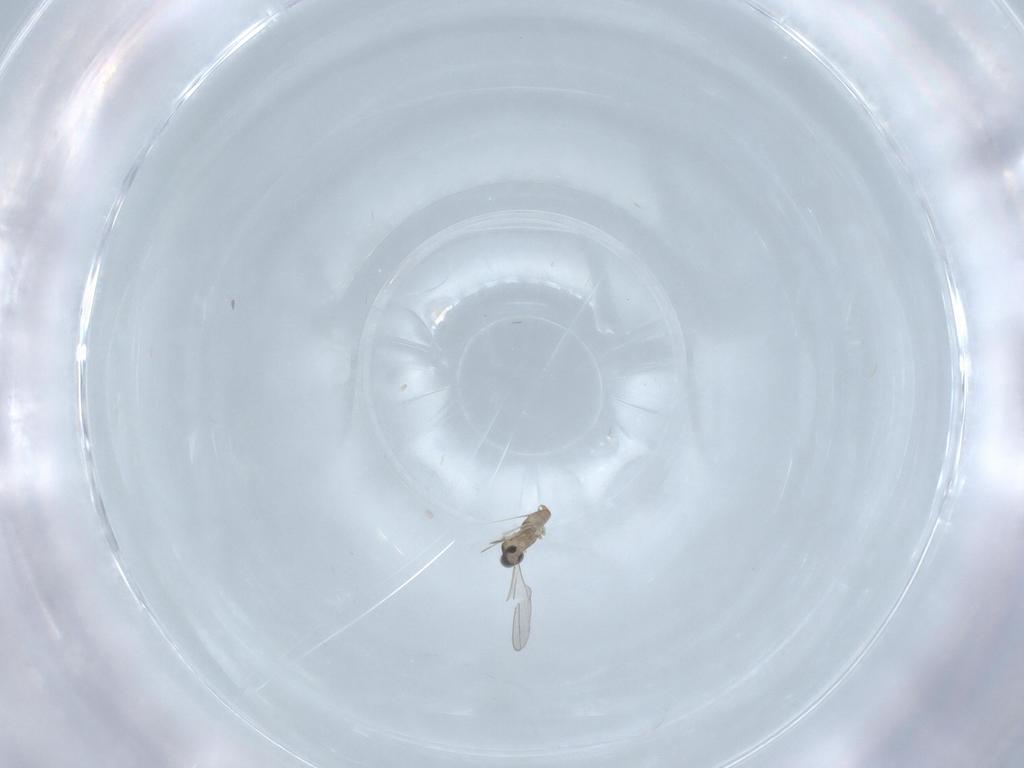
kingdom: Animalia
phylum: Arthropoda
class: Insecta
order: Diptera
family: Cecidomyiidae
